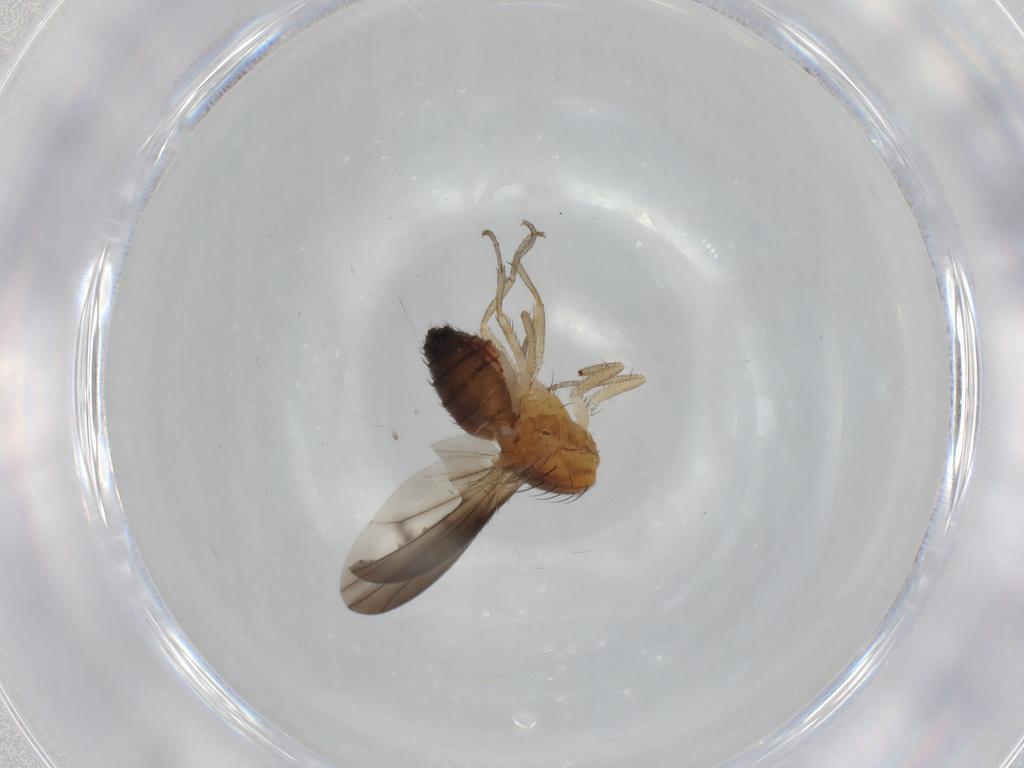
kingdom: Animalia
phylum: Arthropoda
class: Insecta
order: Diptera
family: Heleomyzidae
